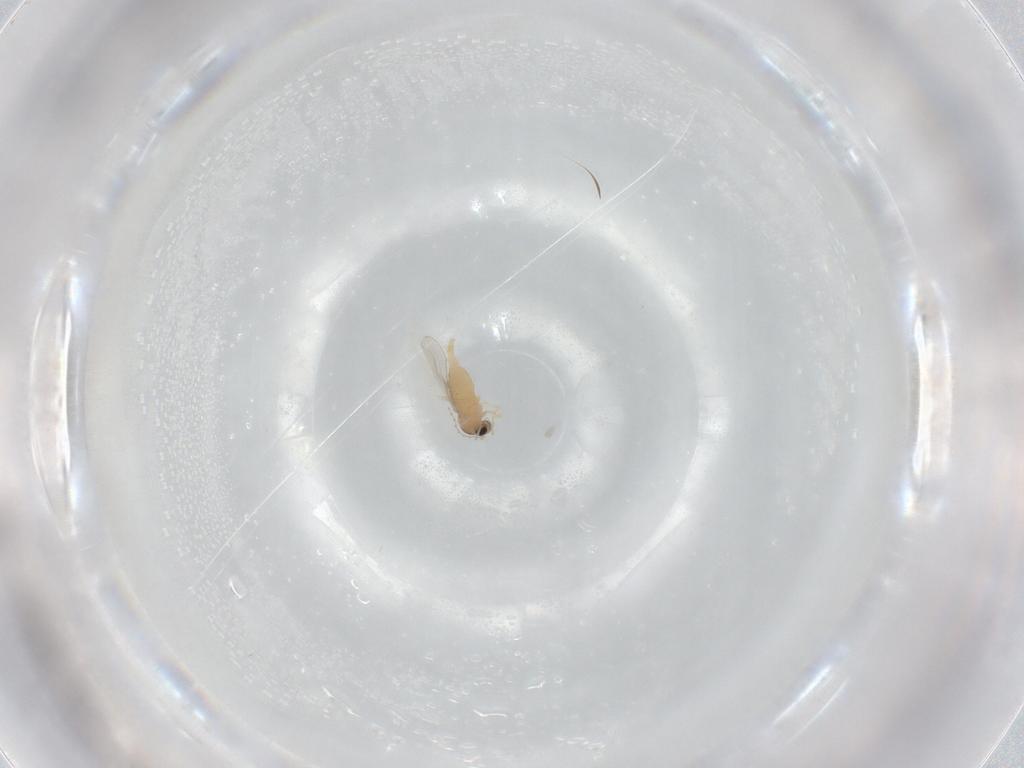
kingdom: Animalia
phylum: Arthropoda
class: Insecta
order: Diptera
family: Cecidomyiidae
